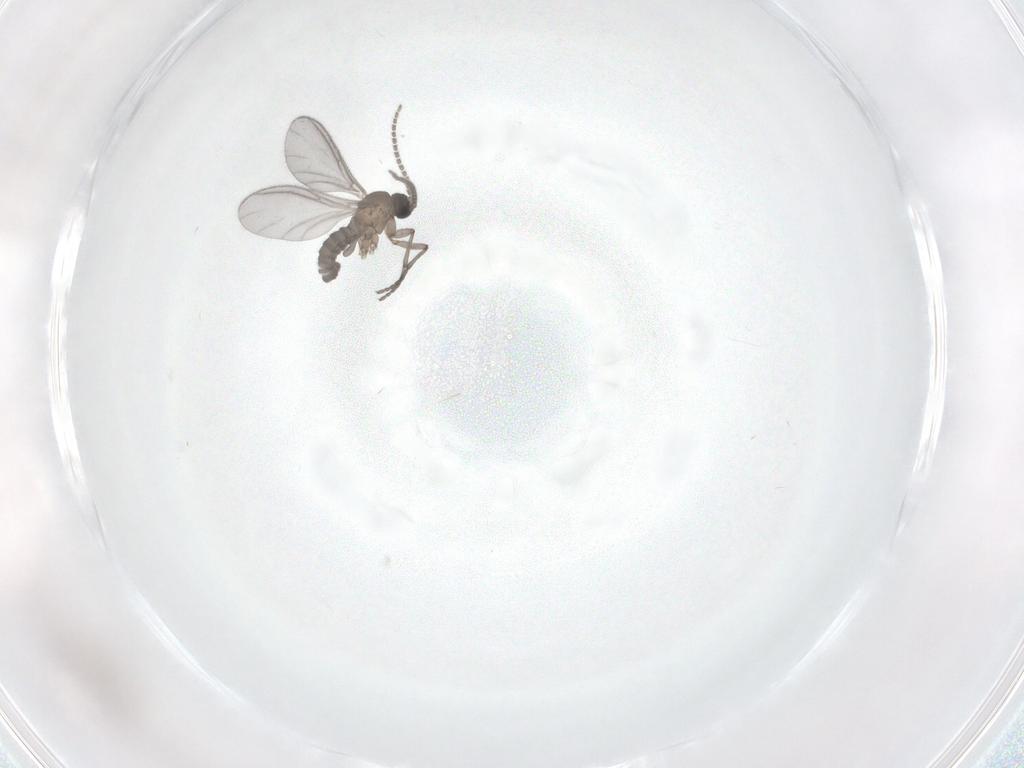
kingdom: Animalia
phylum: Arthropoda
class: Insecta
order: Diptera
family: Sciaridae
